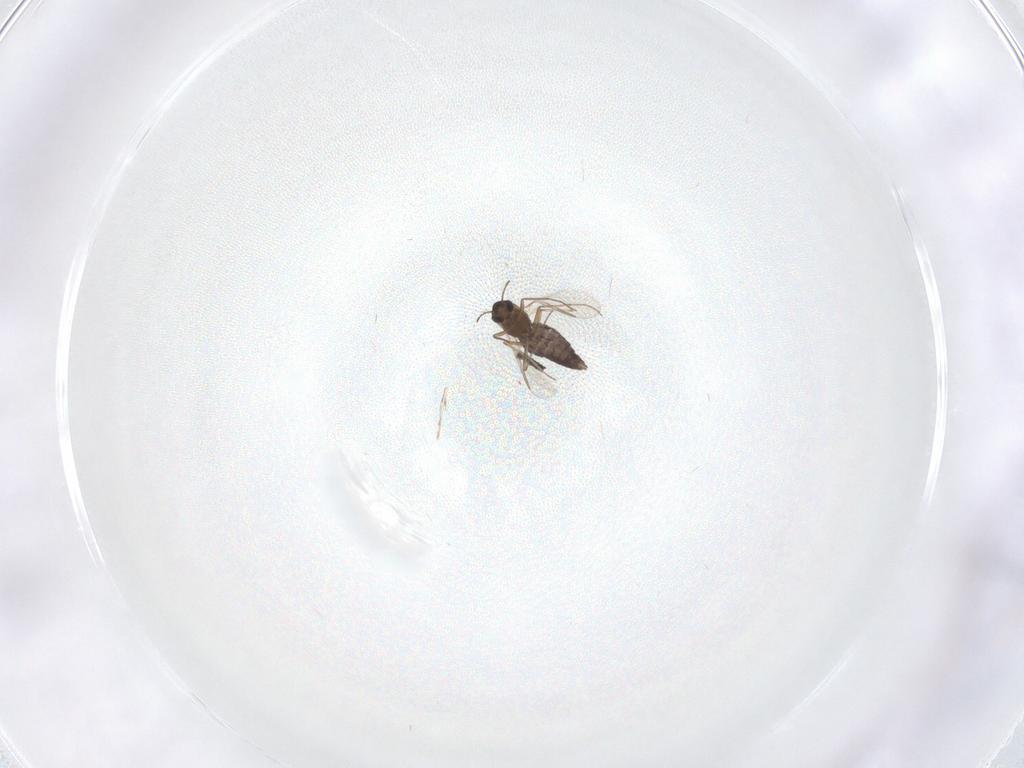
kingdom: Animalia
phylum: Arthropoda
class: Insecta
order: Diptera
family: Chironomidae
